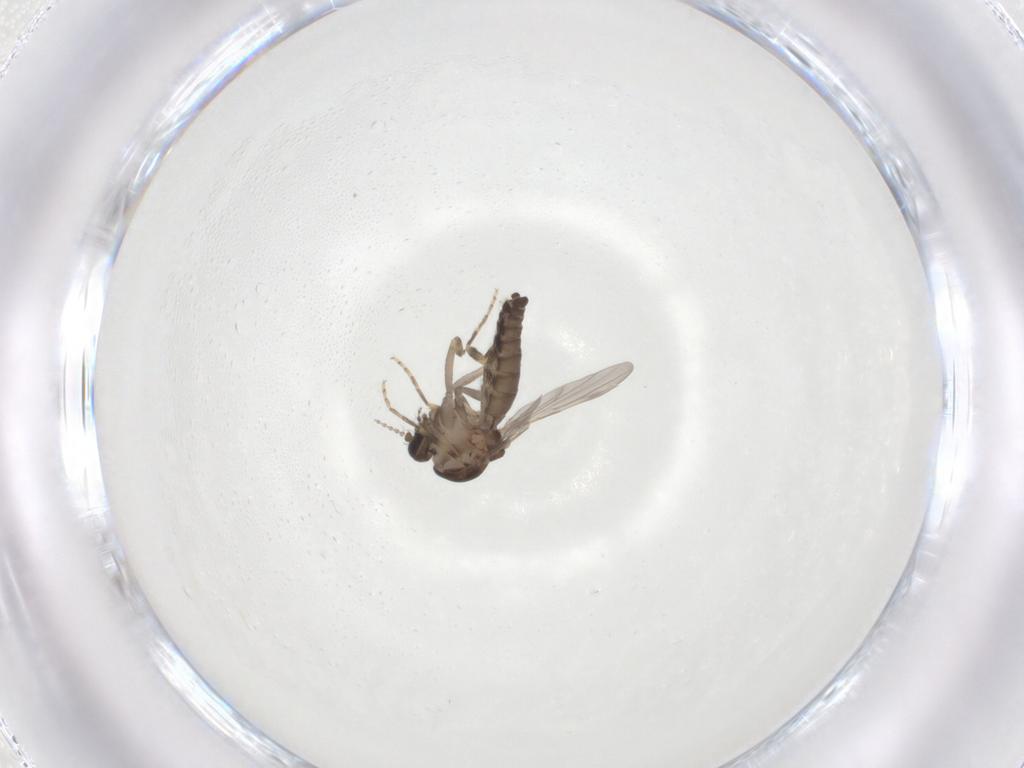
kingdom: Animalia
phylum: Arthropoda
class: Insecta
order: Diptera
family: Ceratopogonidae
